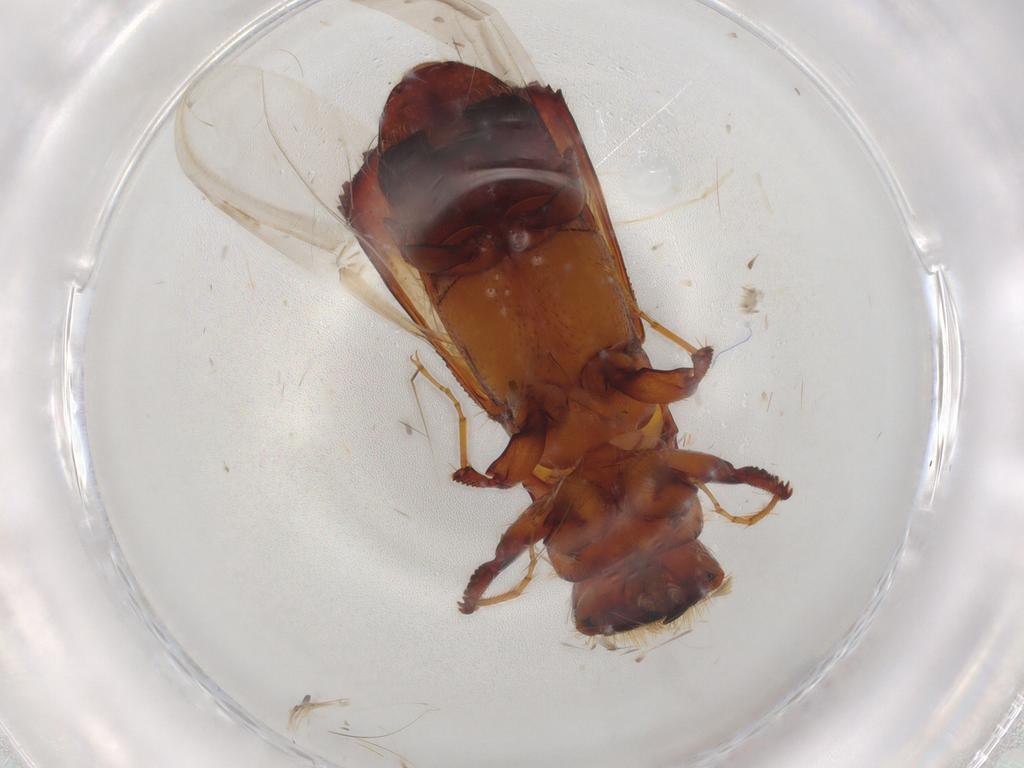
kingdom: Animalia
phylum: Arthropoda
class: Insecta
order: Coleoptera
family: Curculionidae
